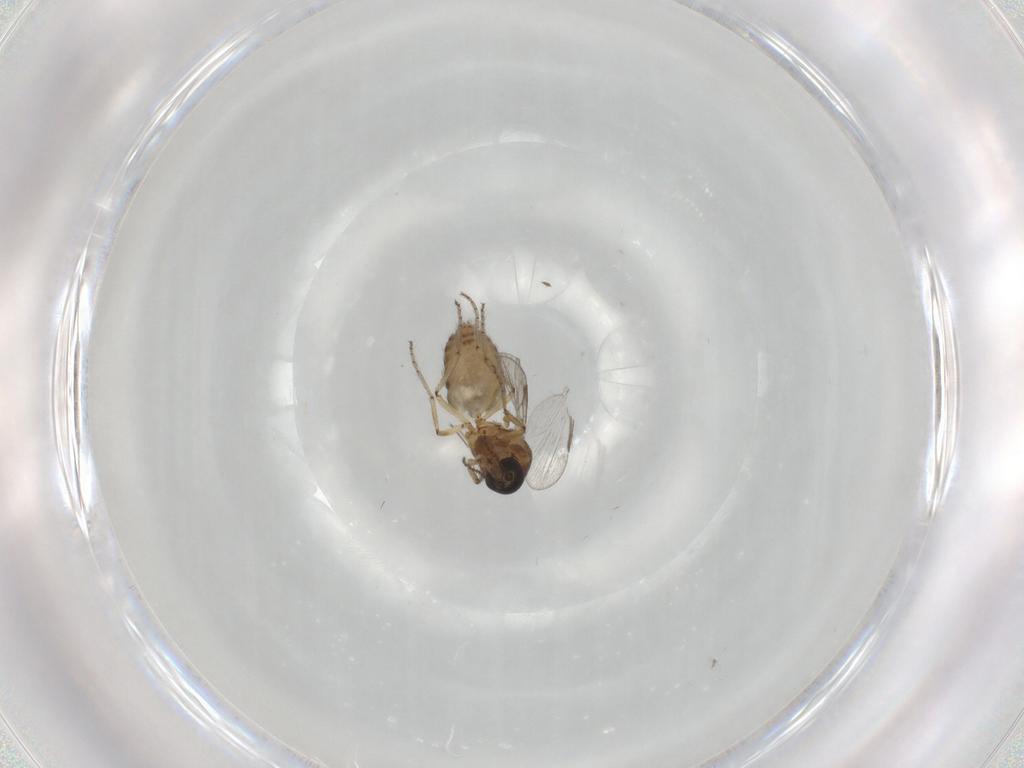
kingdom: Animalia
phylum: Arthropoda
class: Insecta
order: Diptera
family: Ceratopogonidae
